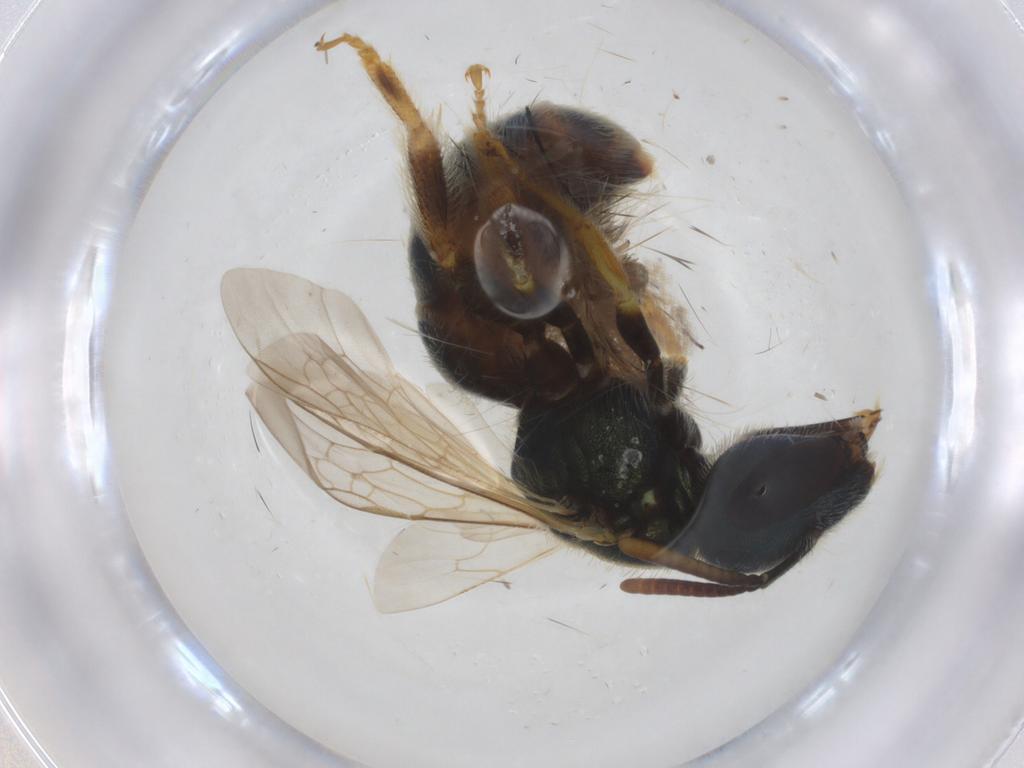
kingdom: Animalia
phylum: Arthropoda
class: Insecta
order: Hymenoptera
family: Halictidae
